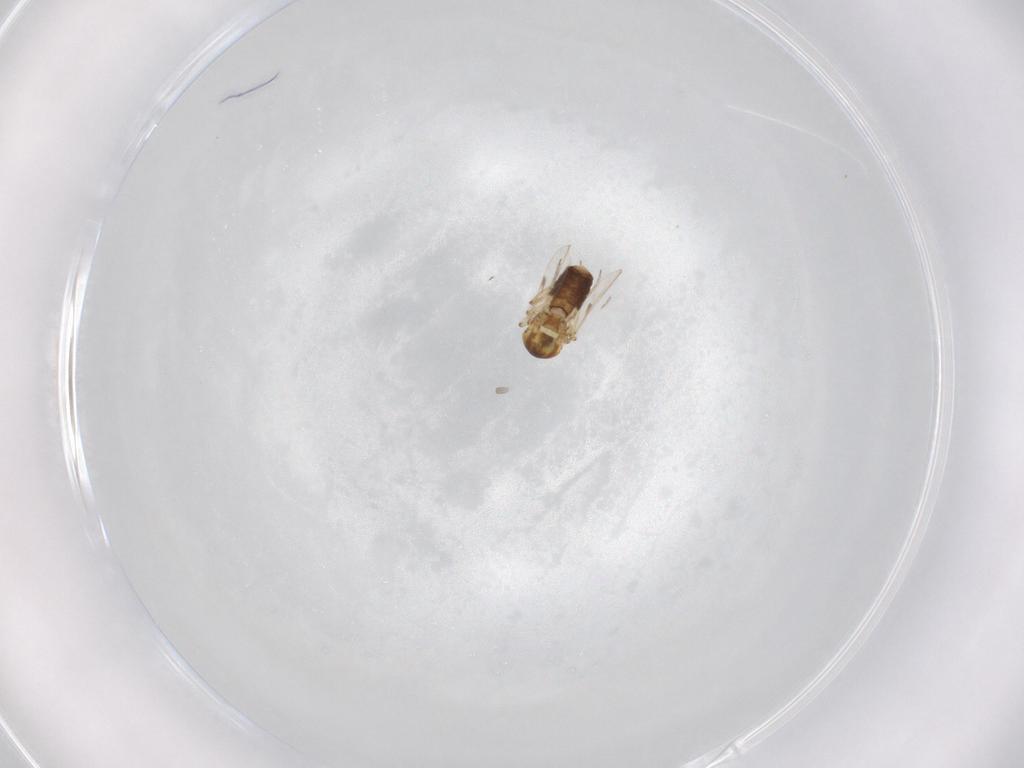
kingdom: Animalia
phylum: Arthropoda
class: Insecta
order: Diptera
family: Ceratopogonidae
